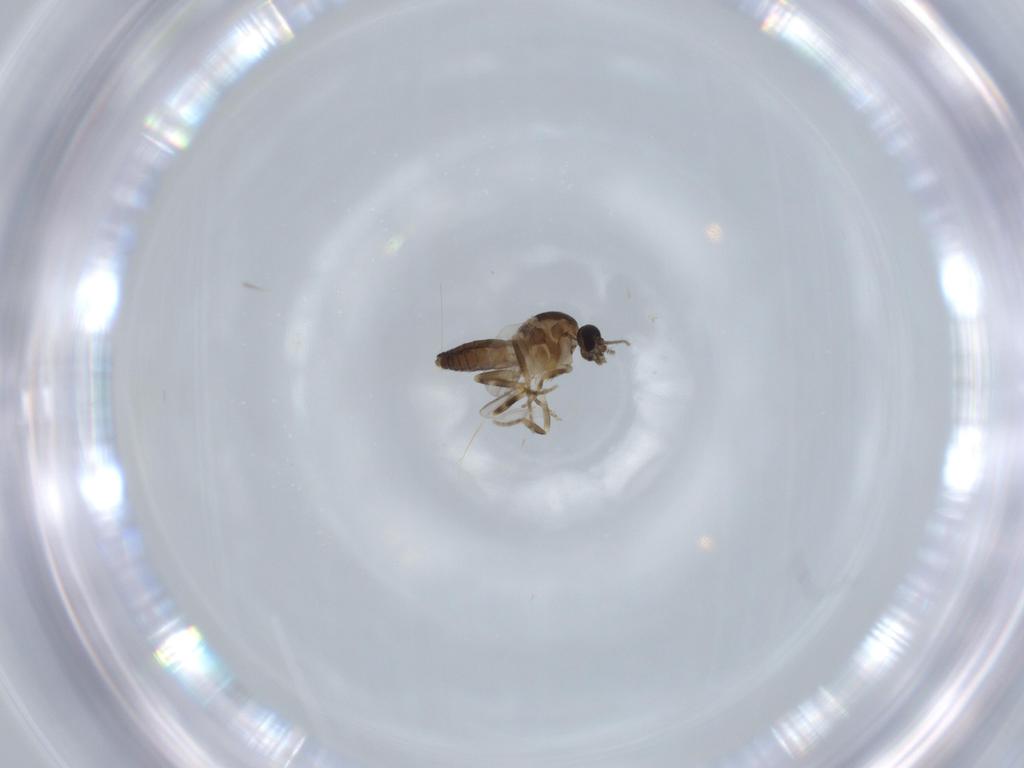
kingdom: Animalia
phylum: Arthropoda
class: Insecta
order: Diptera
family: Ceratopogonidae
